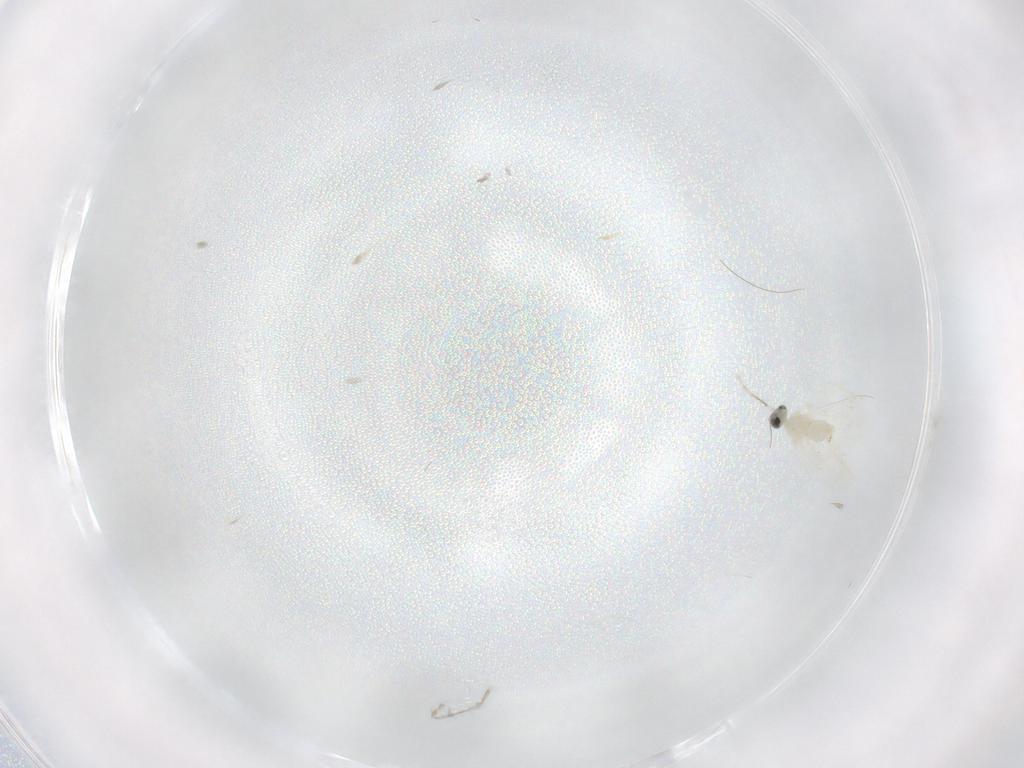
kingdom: Animalia
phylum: Arthropoda
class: Insecta
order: Diptera
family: Cecidomyiidae
